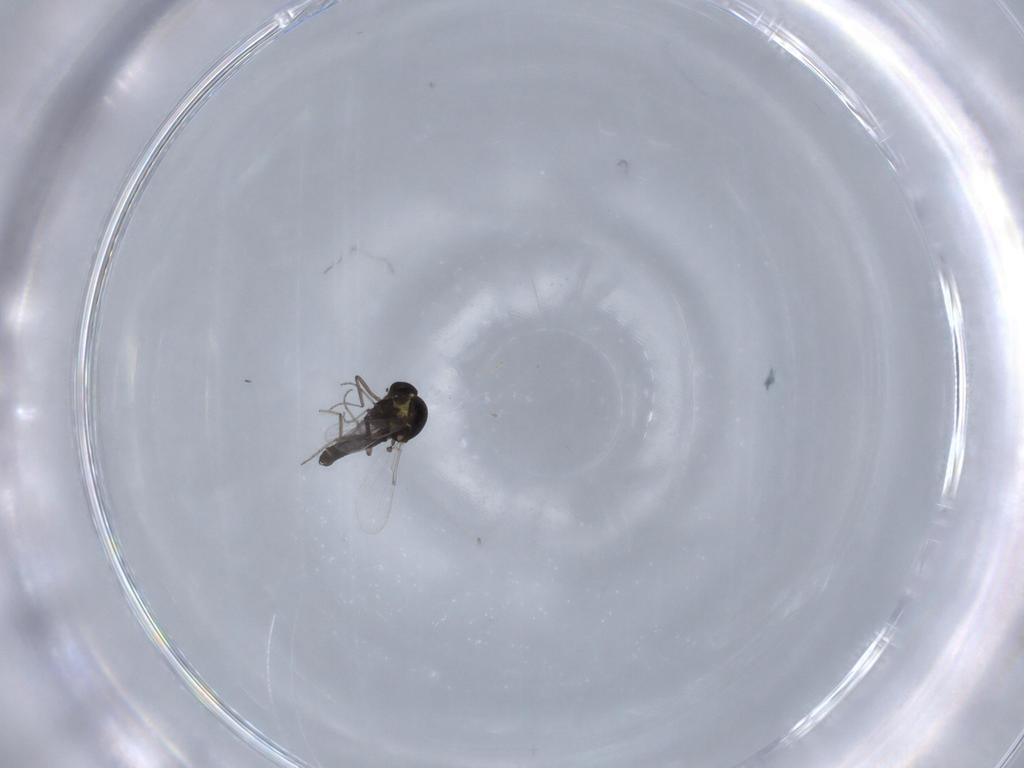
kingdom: Animalia
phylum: Arthropoda
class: Insecta
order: Diptera
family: Ceratopogonidae
